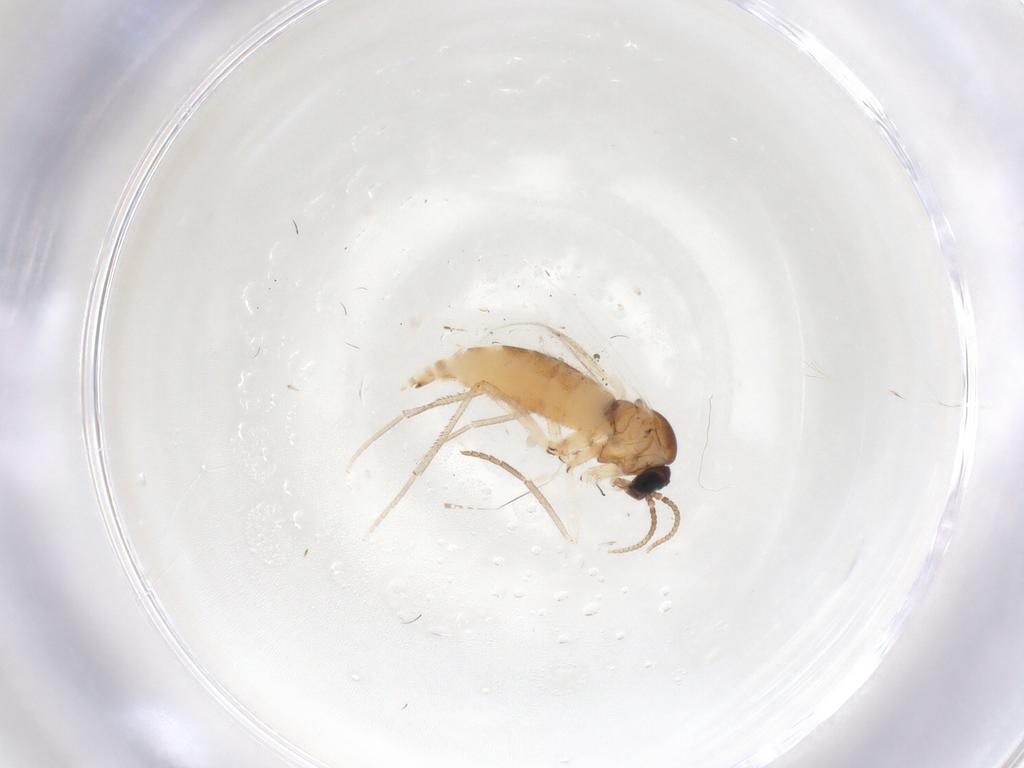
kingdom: Animalia
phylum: Arthropoda
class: Insecta
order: Diptera
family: Sciaridae
